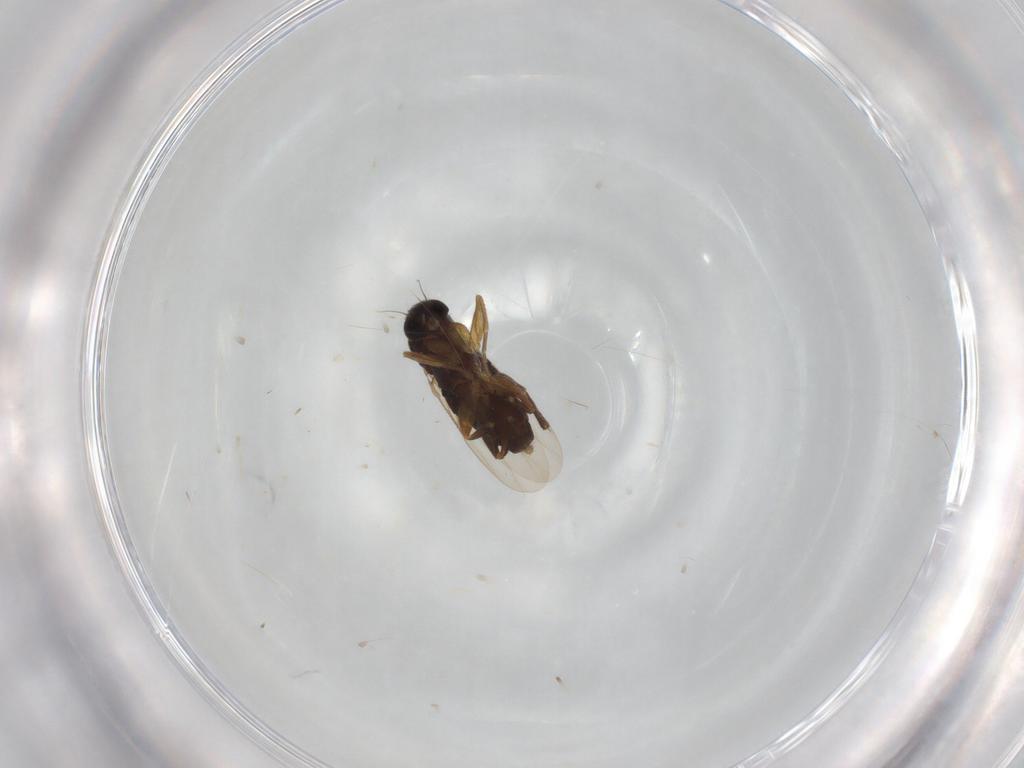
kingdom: Animalia
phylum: Arthropoda
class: Insecta
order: Diptera
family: Phoridae
